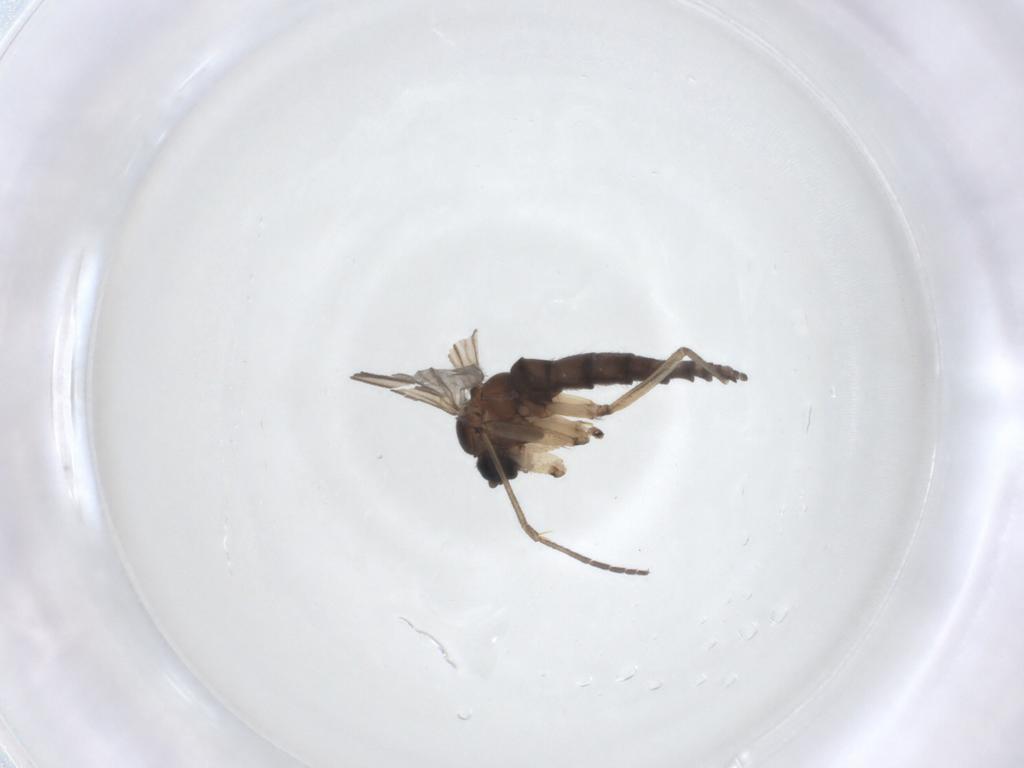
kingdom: Animalia
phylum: Arthropoda
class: Insecta
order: Diptera
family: Sciaridae
